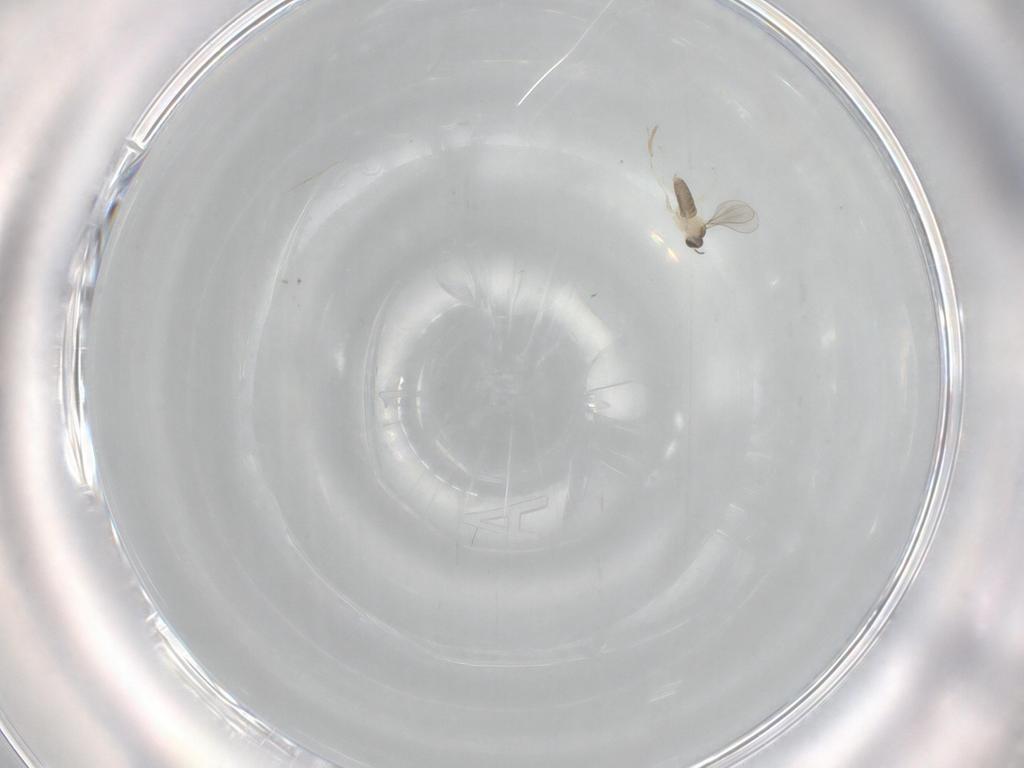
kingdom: Animalia
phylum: Arthropoda
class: Insecta
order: Diptera
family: Chironomidae
